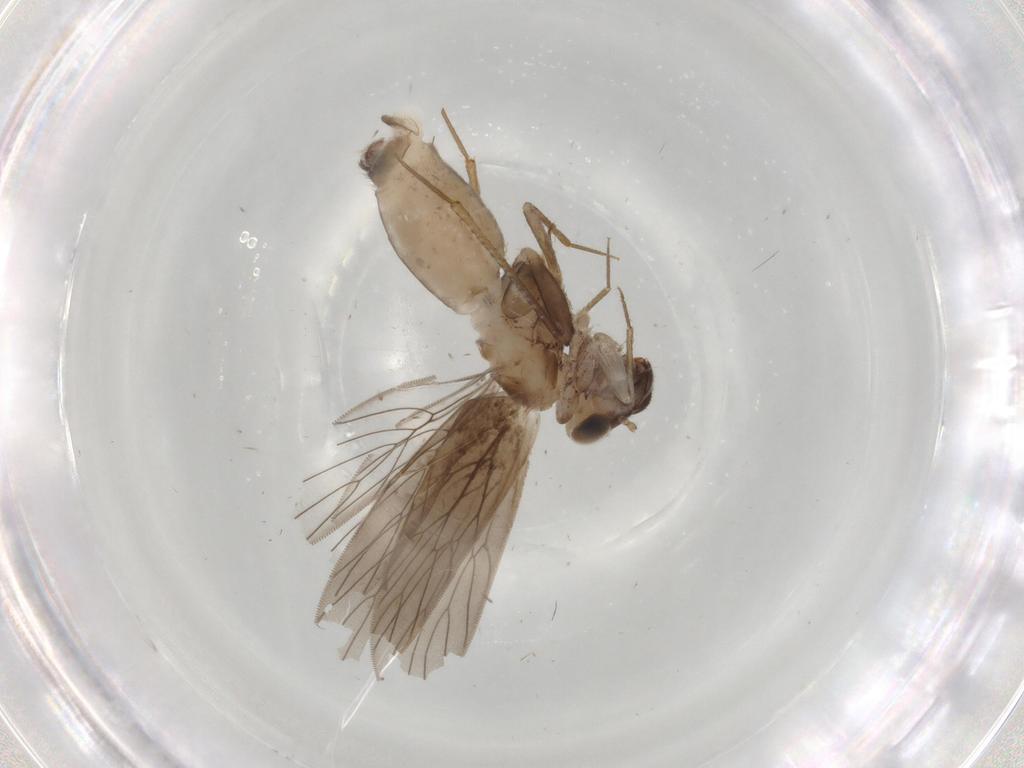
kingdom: Animalia
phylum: Arthropoda
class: Insecta
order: Psocodea
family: Lepidopsocidae
